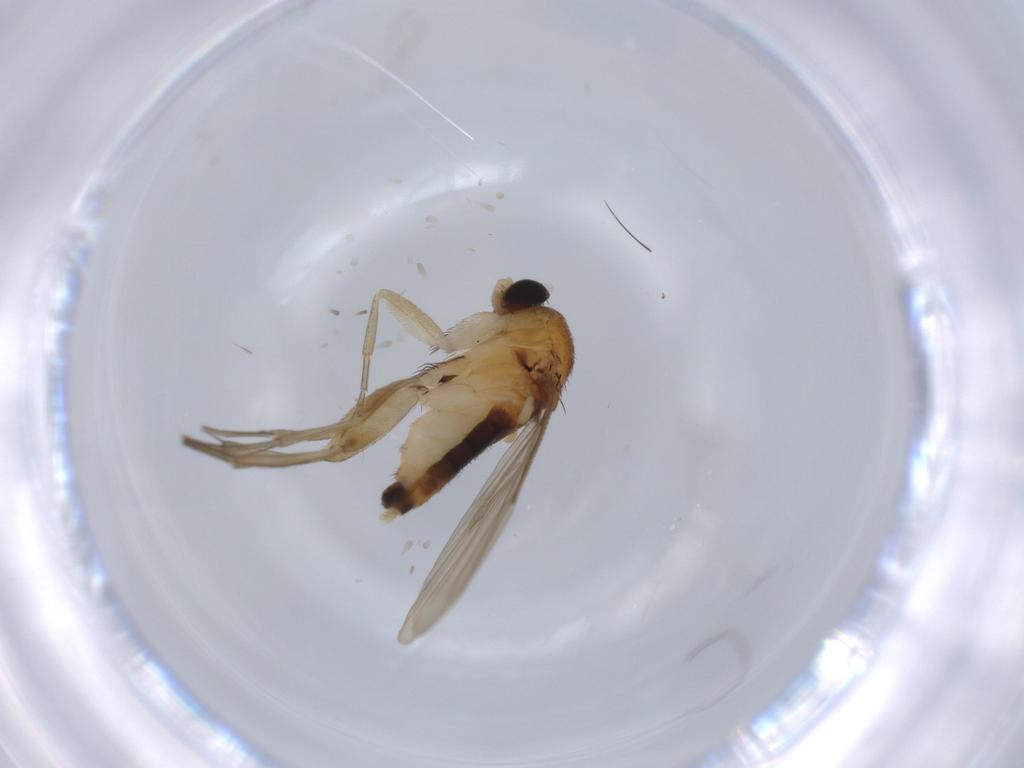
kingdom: Animalia
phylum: Arthropoda
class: Insecta
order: Diptera
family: Phoridae
